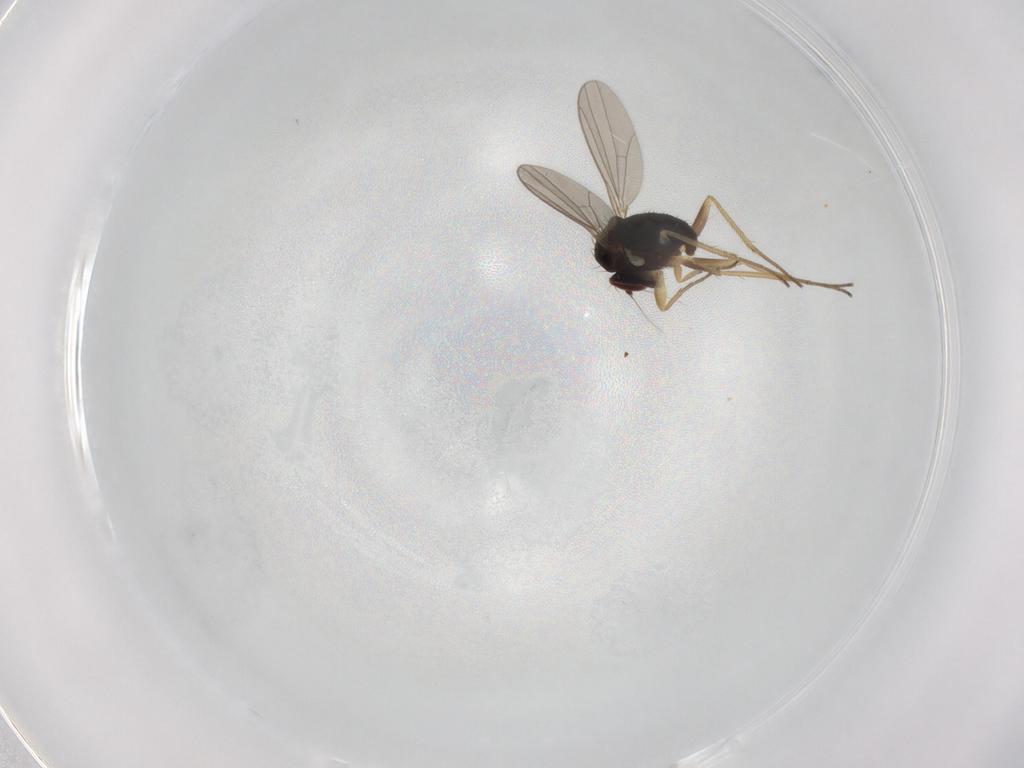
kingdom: Animalia
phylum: Arthropoda
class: Insecta
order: Diptera
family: Dolichopodidae
